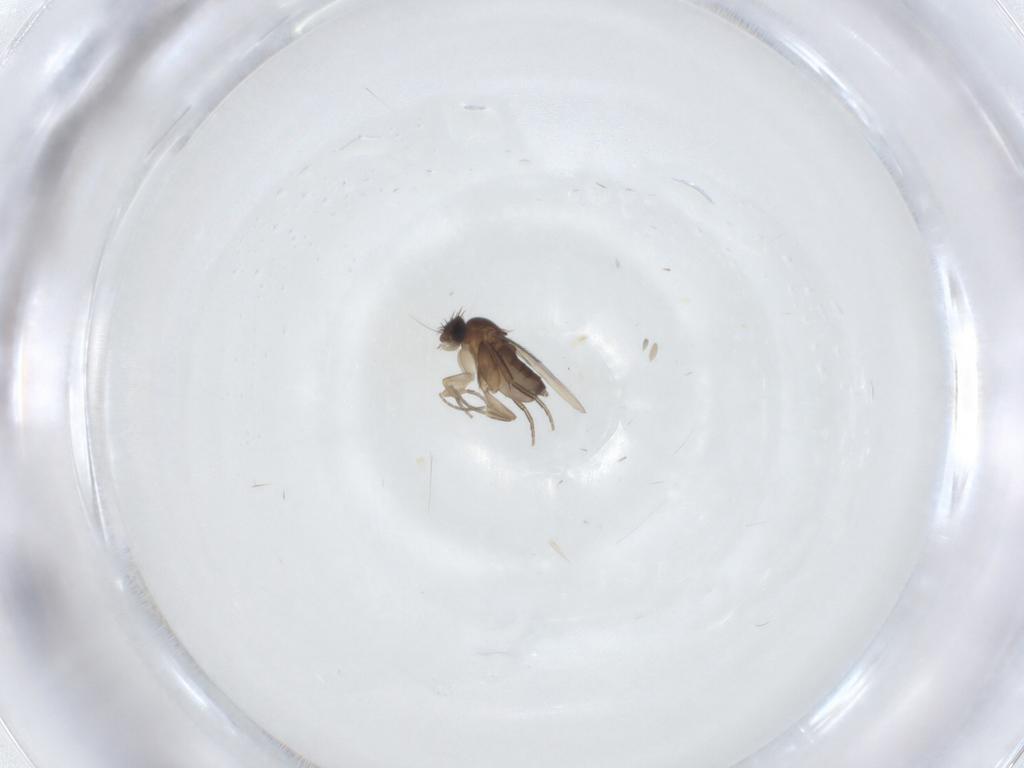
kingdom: Animalia
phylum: Arthropoda
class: Insecta
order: Diptera
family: Phoridae
